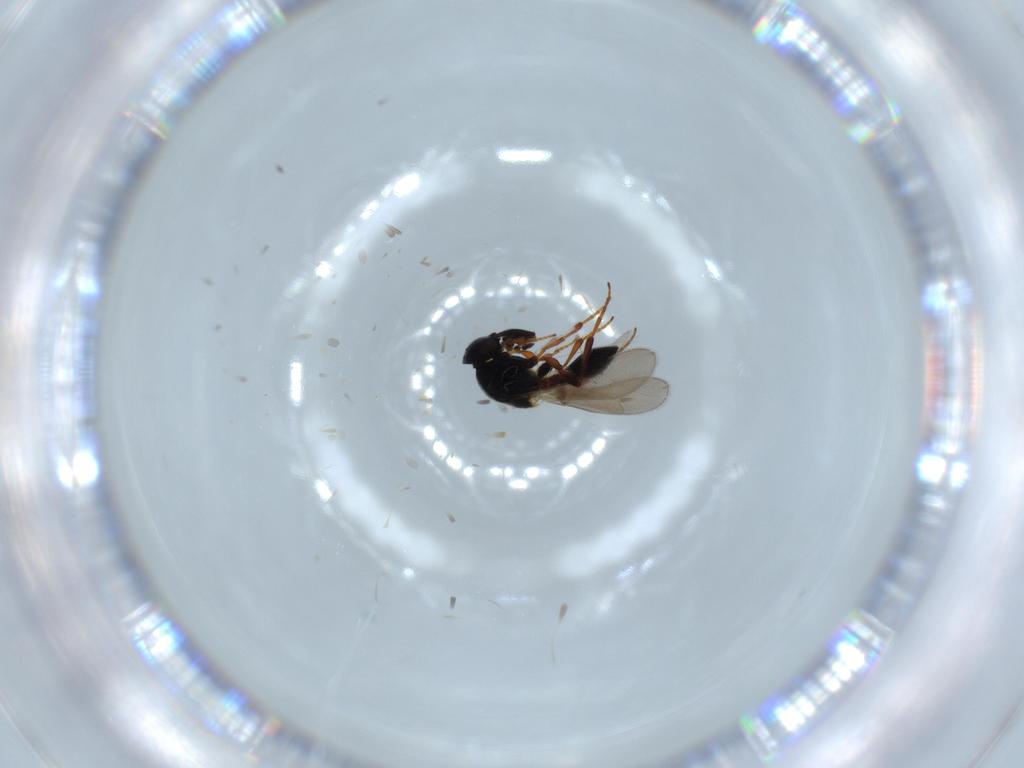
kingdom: Animalia
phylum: Arthropoda
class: Insecta
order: Hymenoptera
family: Platygastridae
